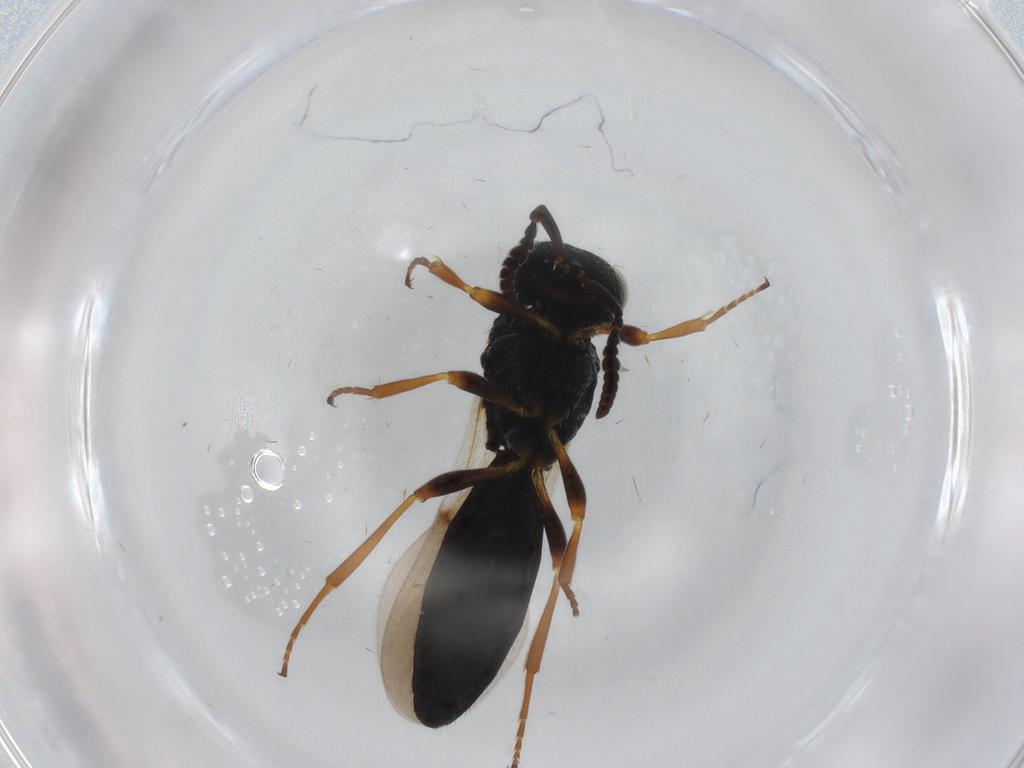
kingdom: Animalia
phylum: Arthropoda
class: Insecta
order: Hymenoptera
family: Scelionidae
